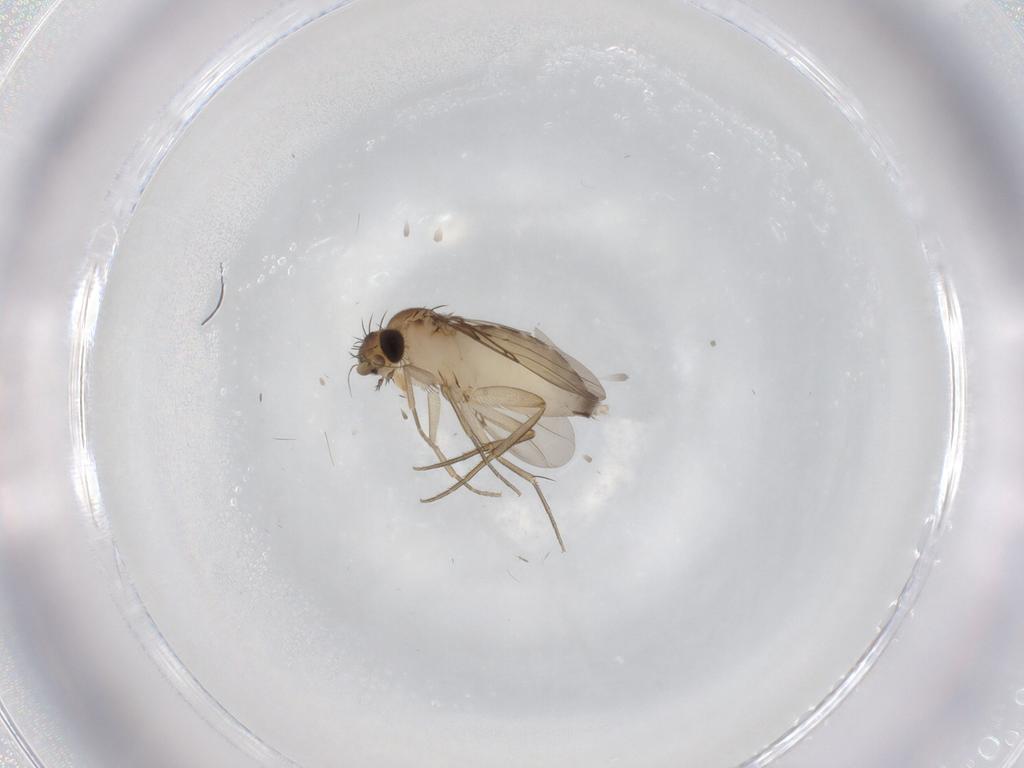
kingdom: Animalia
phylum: Arthropoda
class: Insecta
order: Diptera
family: Phoridae
